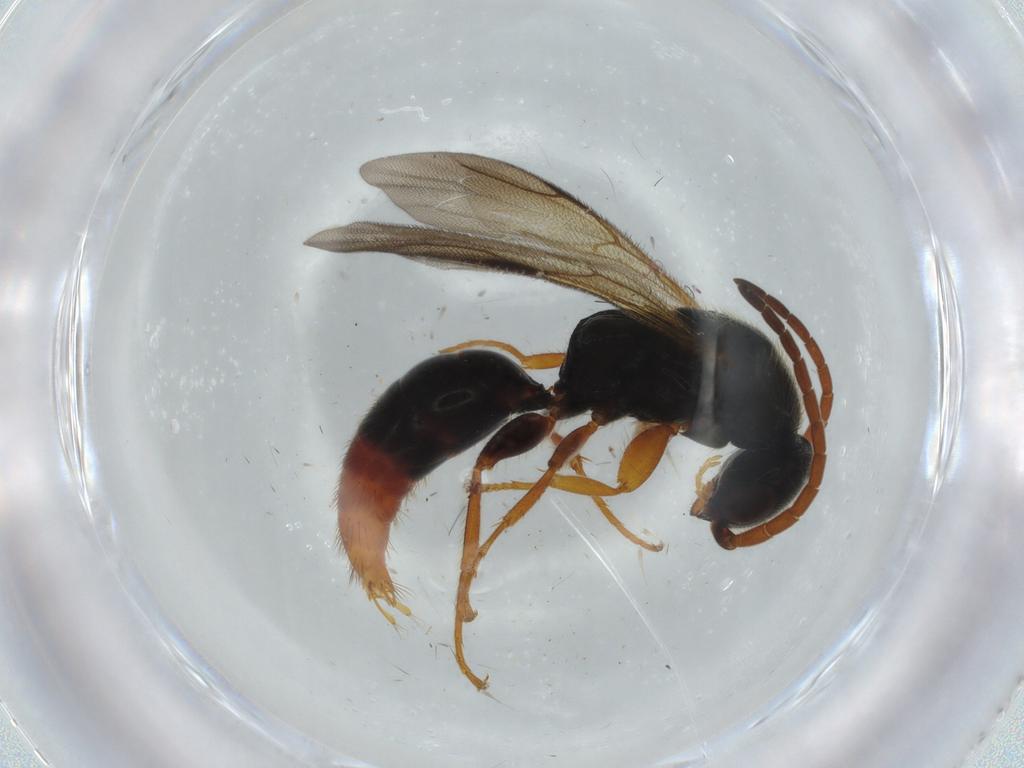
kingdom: Animalia
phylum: Arthropoda
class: Insecta
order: Hymenoptera
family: Bethylidae
